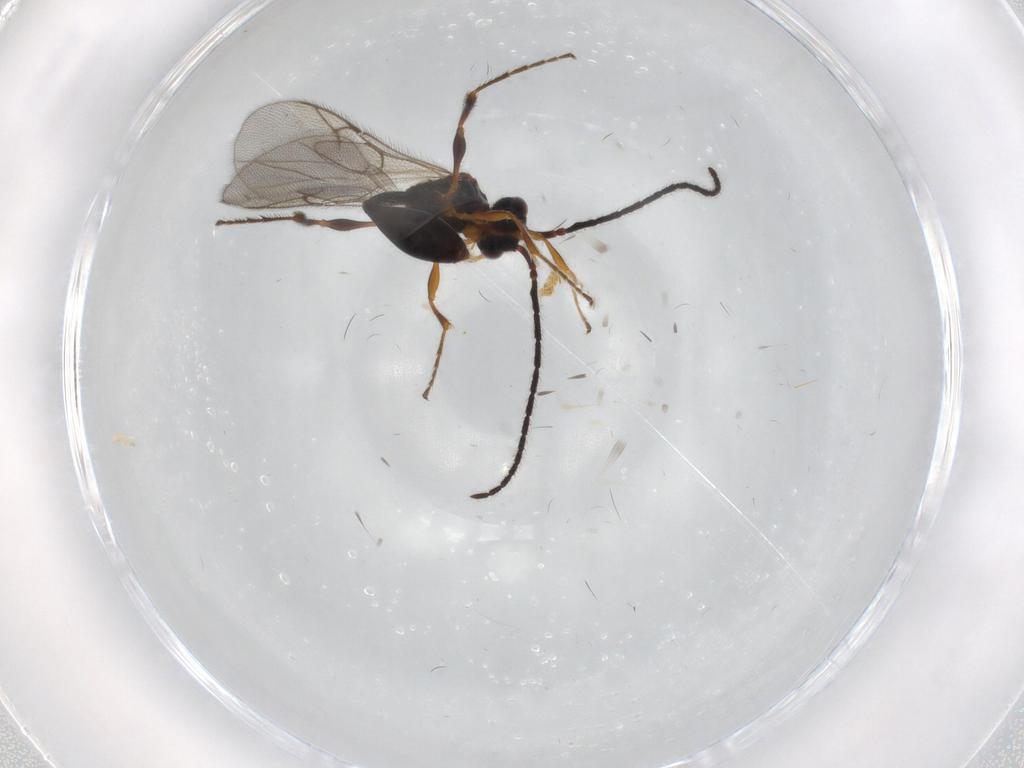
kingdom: Animalia
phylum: Arthropoda
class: Insecta
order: Hymenoptera
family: Diapriidae
